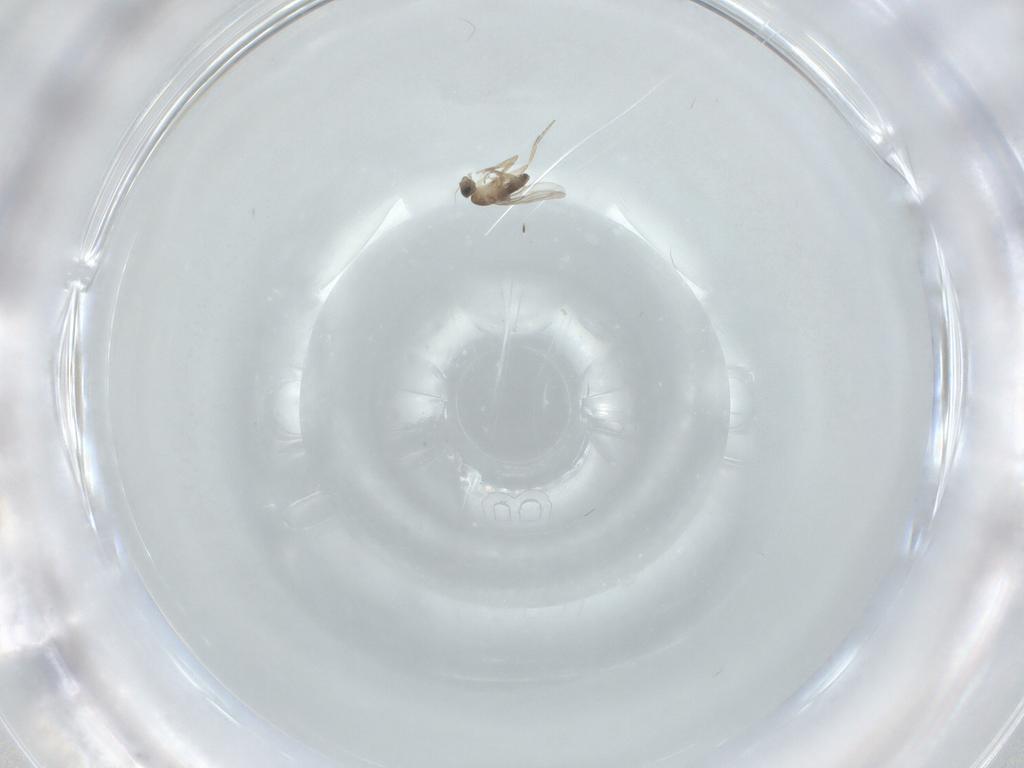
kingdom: Animalia
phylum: Arthropoda
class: Insecta
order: Diptera
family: Phoridae
